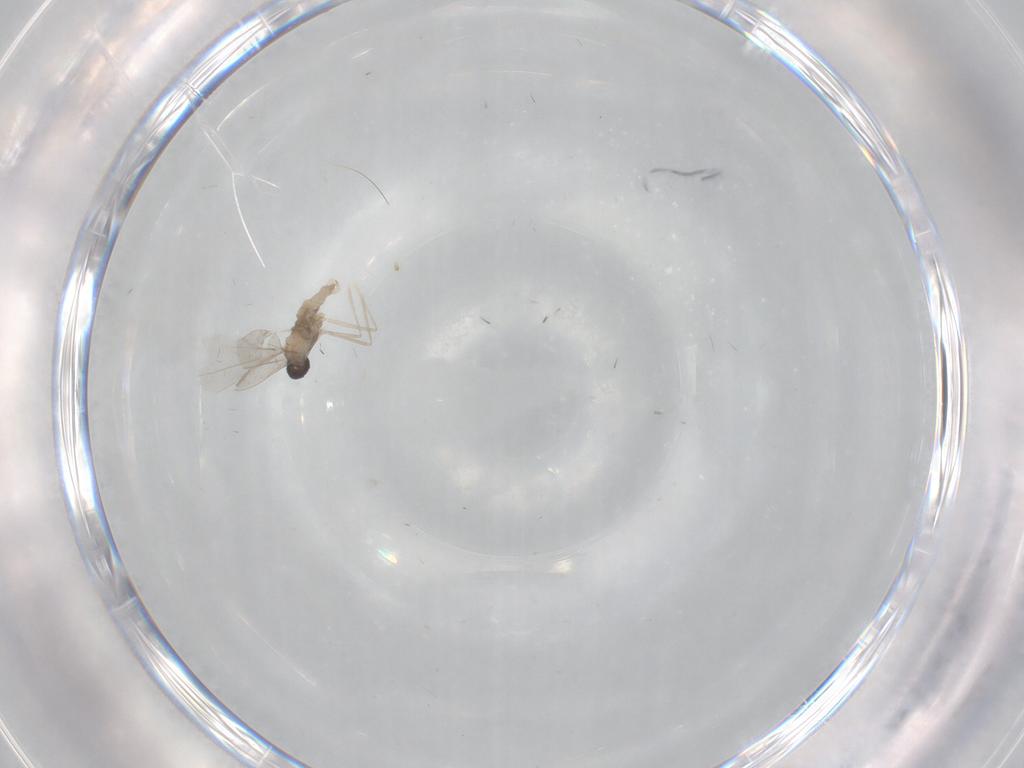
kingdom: Animalia
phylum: Arthropoda
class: Insecta
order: Diptera
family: Cecidomyiidae
